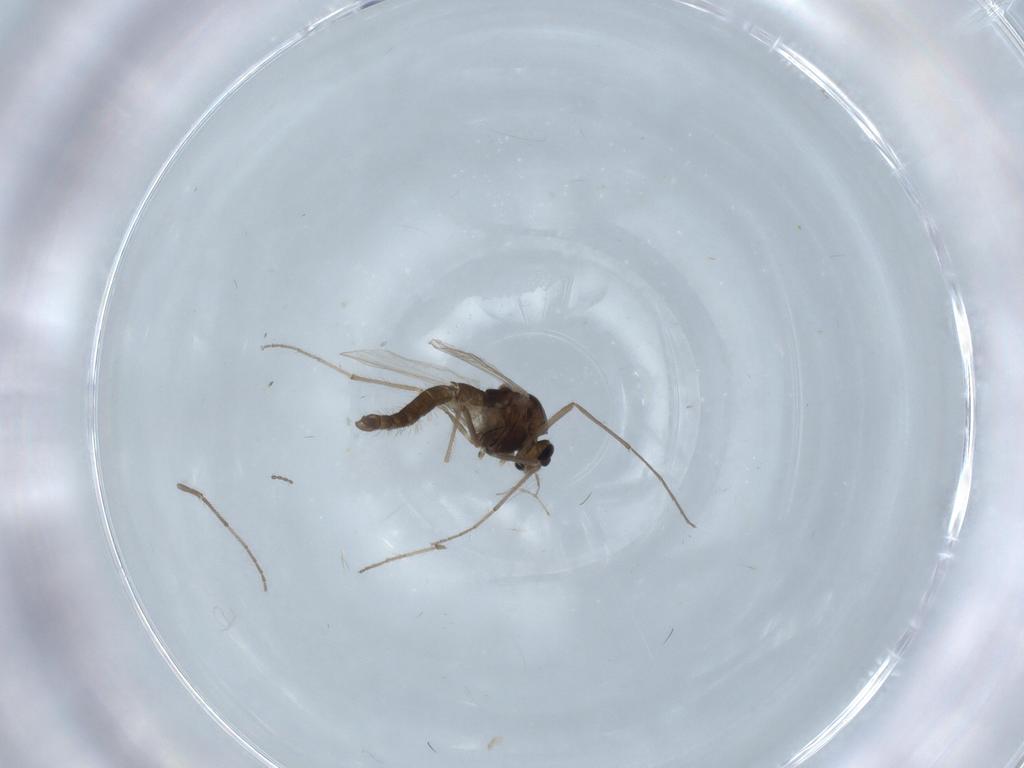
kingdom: Animalia
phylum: Arthropoda
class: Insecta
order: Diptera
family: Chironomidae
